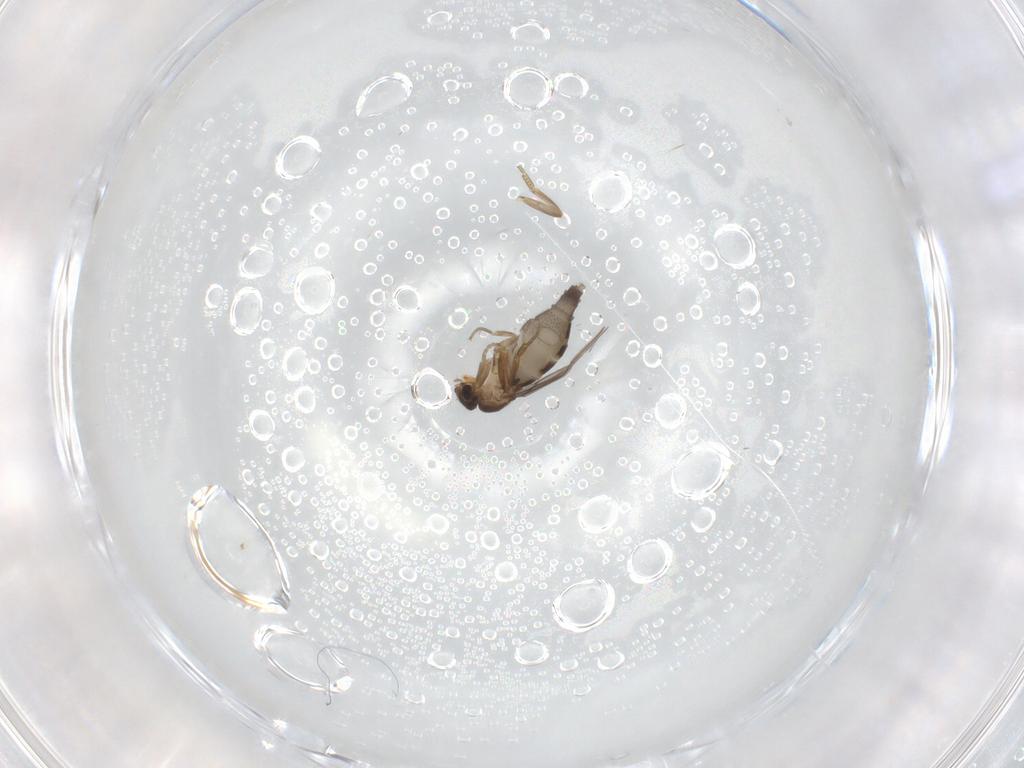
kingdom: Animalia
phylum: Arthropoda
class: Insecta
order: Diptera
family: Phoridae
